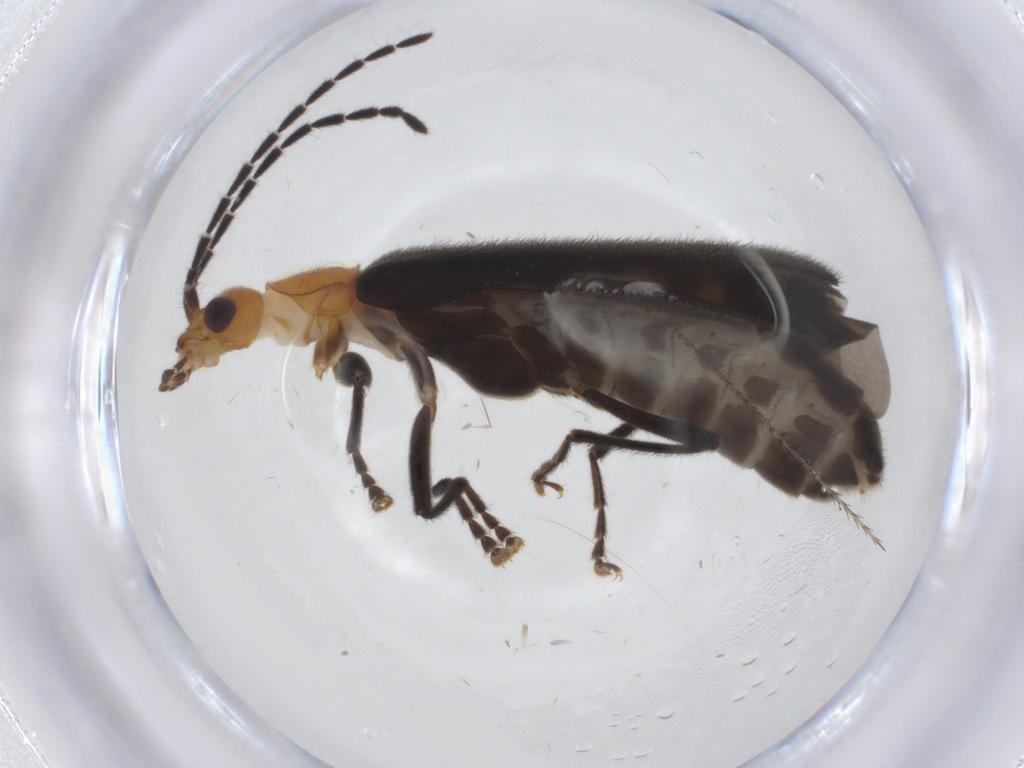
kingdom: Animalia
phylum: Arthropoda
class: Insecta
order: Coleoptera
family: Cantharidae
